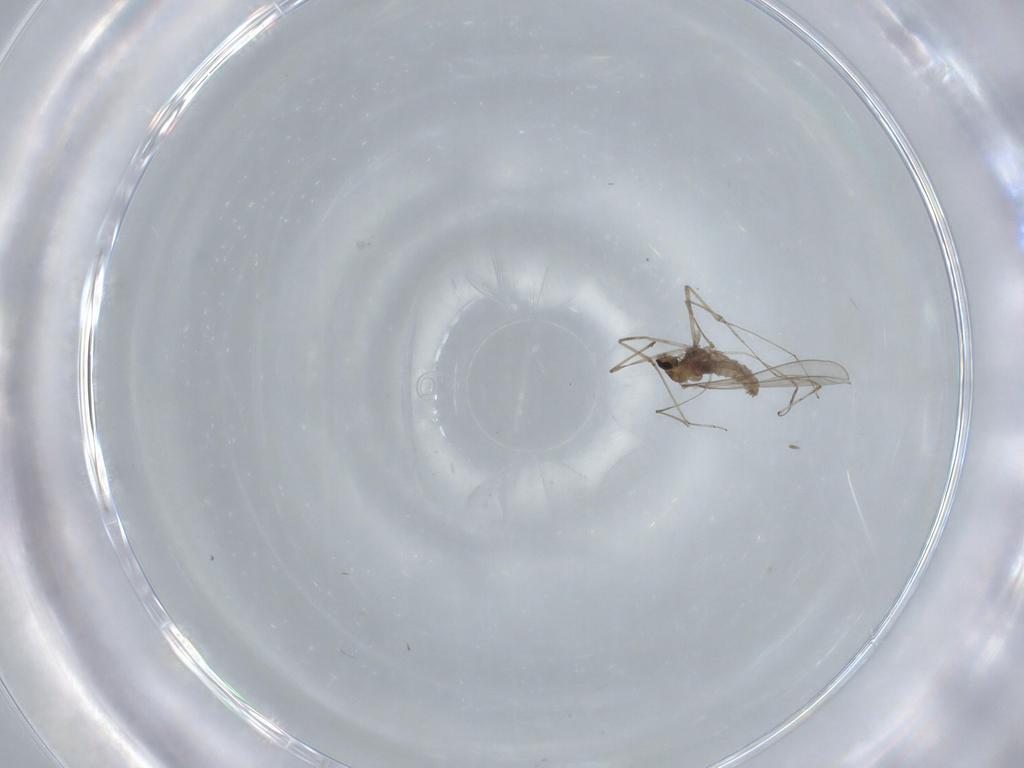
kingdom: Animalia
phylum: Arthropoda
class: Insecta
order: Diptera
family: Cecidomyiidae
